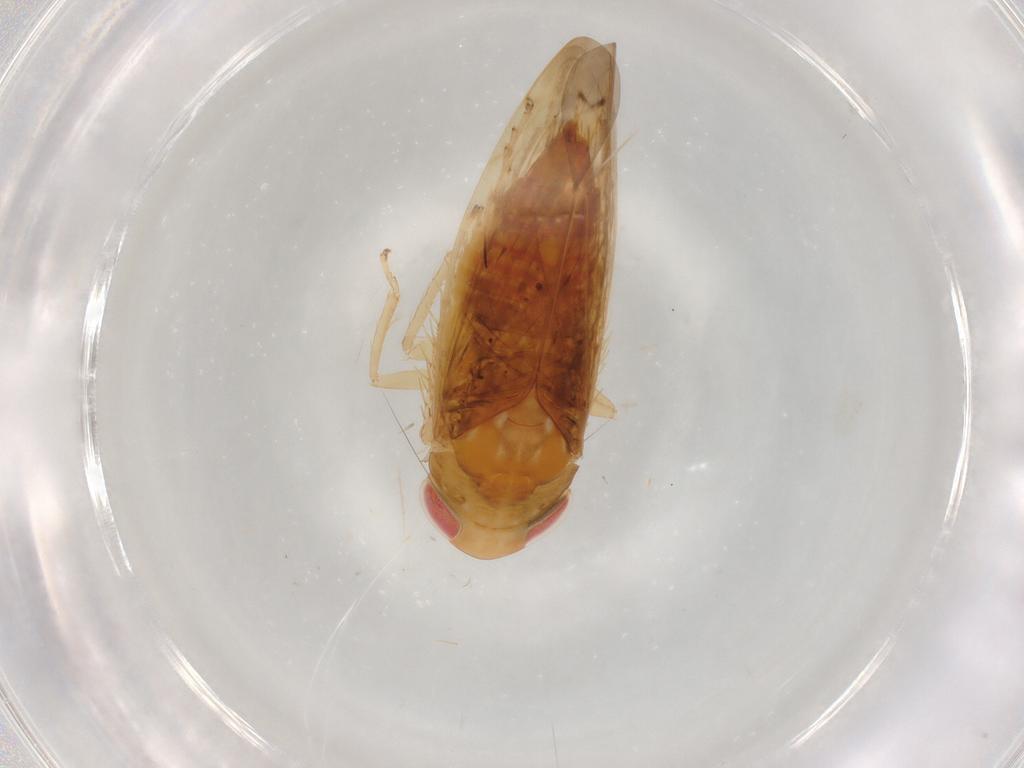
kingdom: Animalia
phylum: Arthropoda
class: Insecta
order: Hemiptera
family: Cicadellidae
